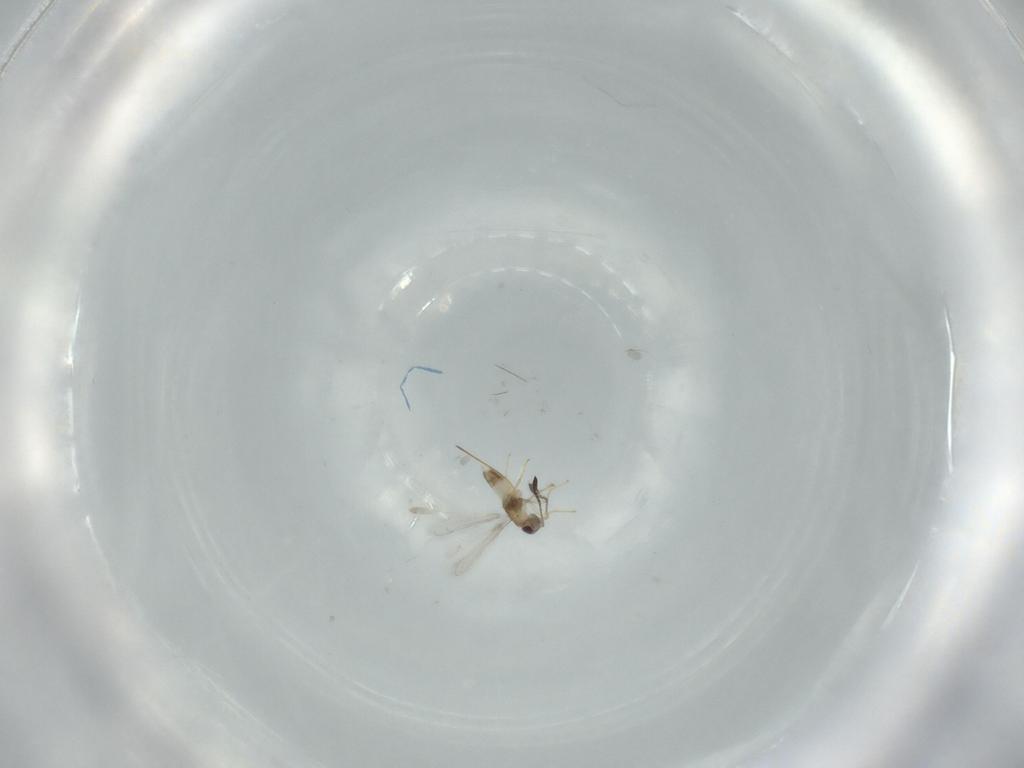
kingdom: Animalia
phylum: Arthropoda
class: Insecta
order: Hymenoptera
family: Mymaridae
